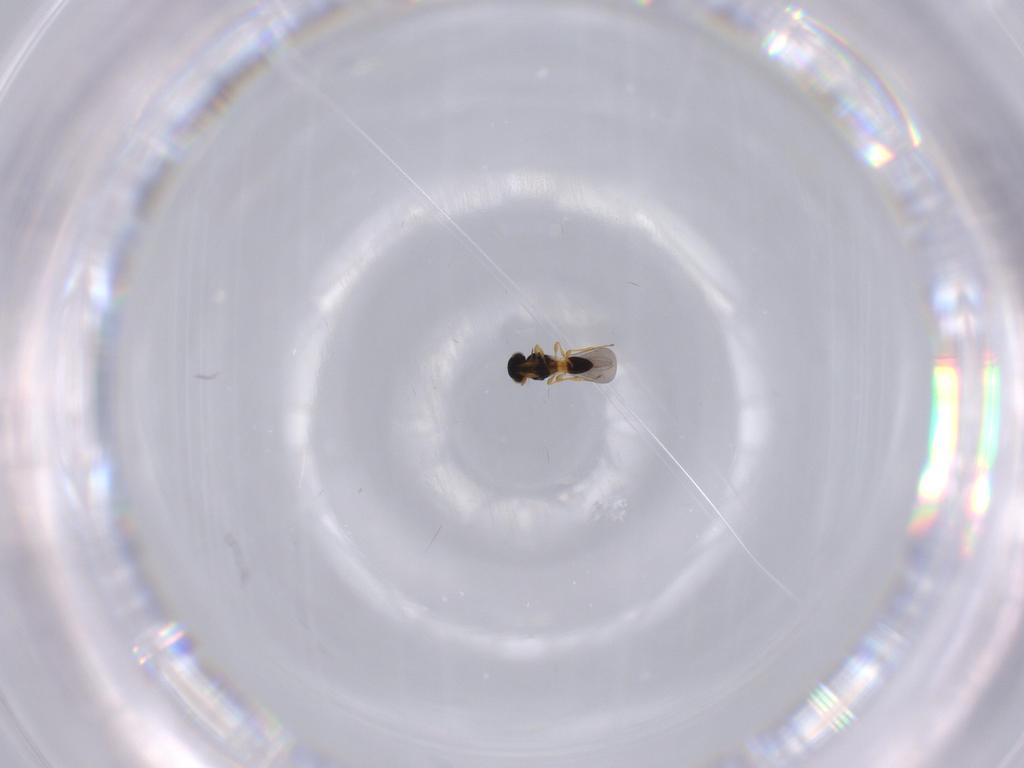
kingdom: Animalia
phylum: Arthropoda
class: Insecta
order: Hymenoptera
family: Platygastridae
